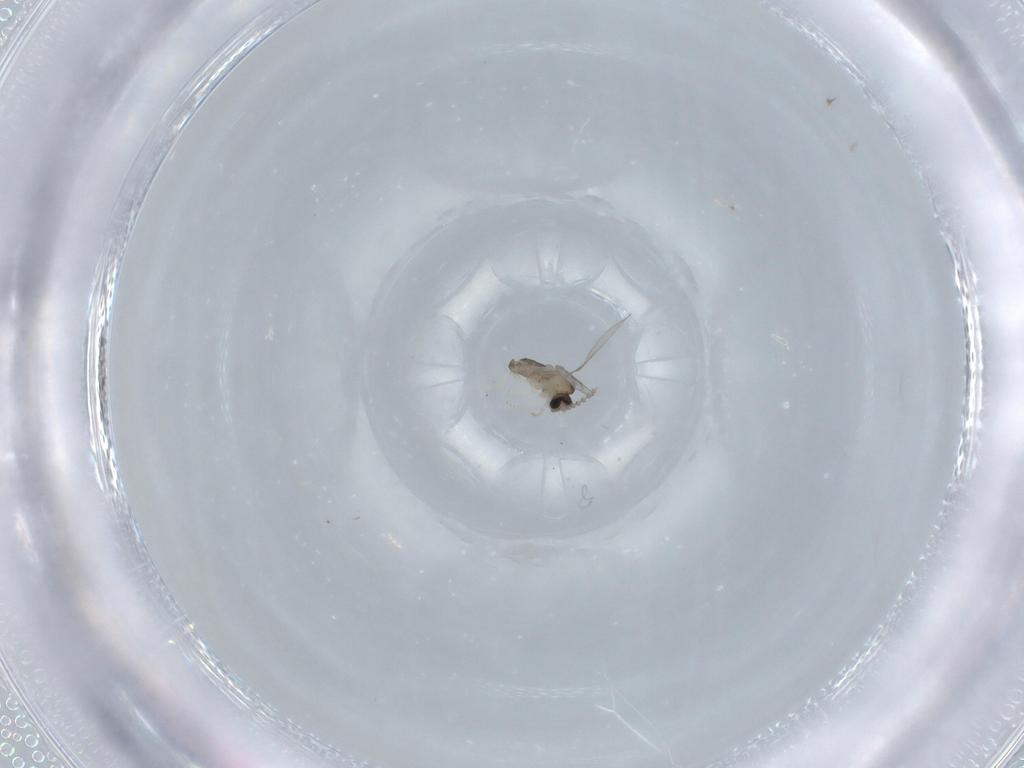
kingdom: Animalia
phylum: Arthropoda
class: Insecta
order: Diptera
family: Cecidomyiidae
